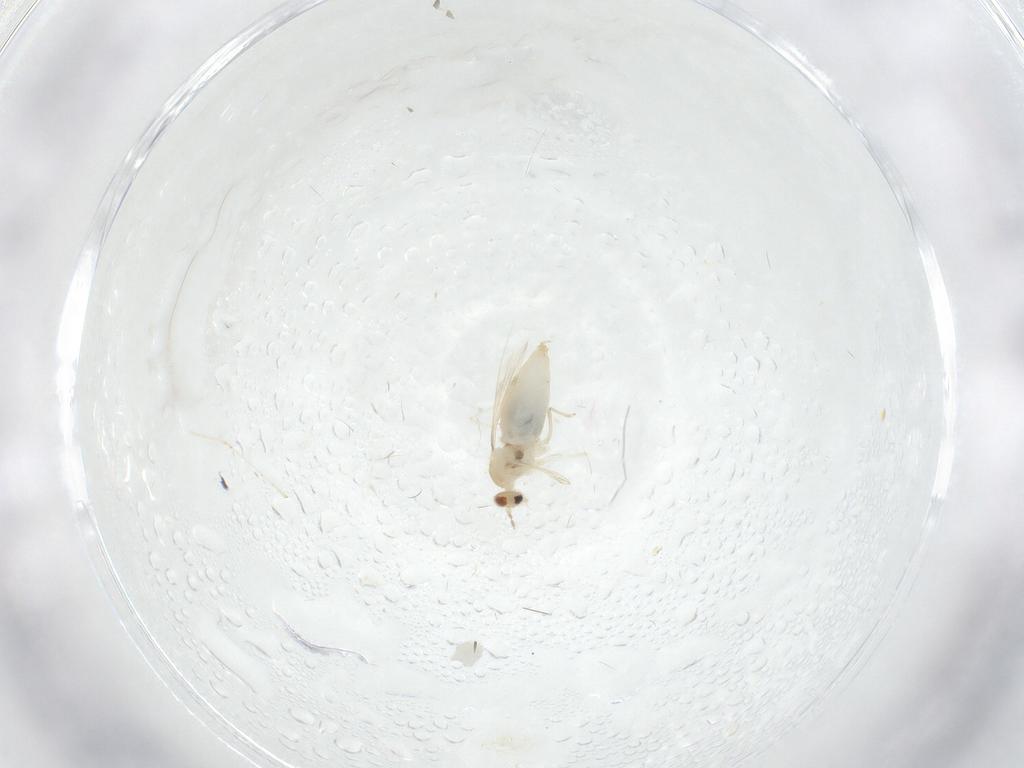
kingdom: Animalia
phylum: Arthropoda
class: Insecta
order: Diptera
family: Cecidomyiidae
